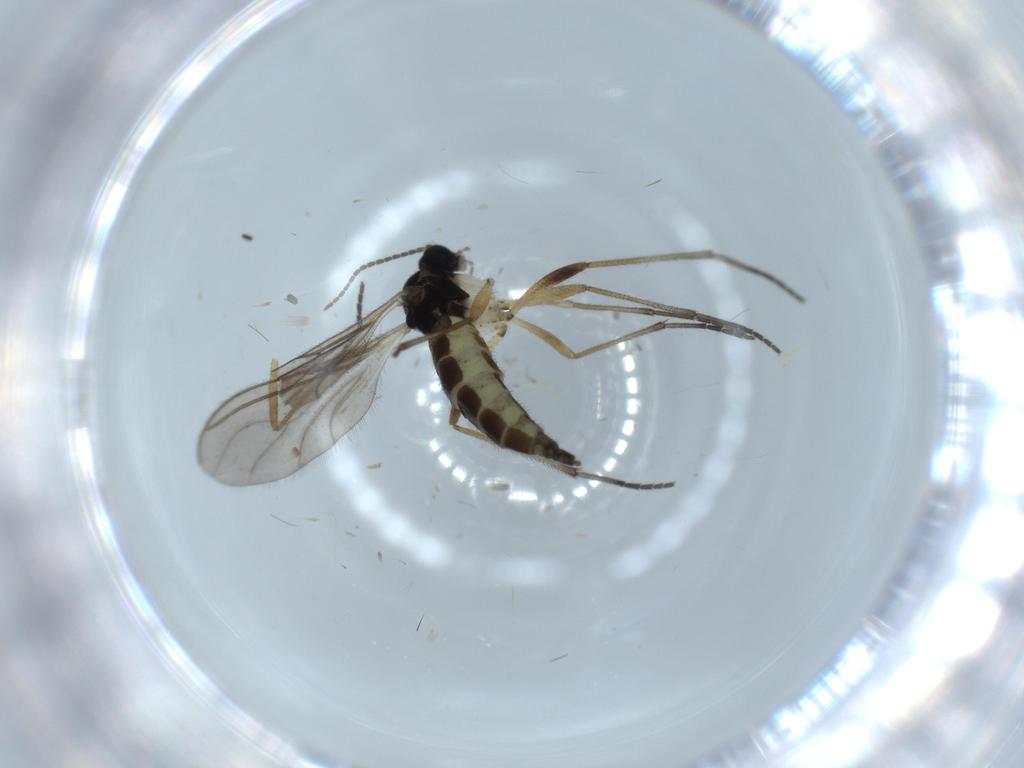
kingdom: Animalia
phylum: Arthropoda
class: Insecta
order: Diptera
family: Sciaridae
